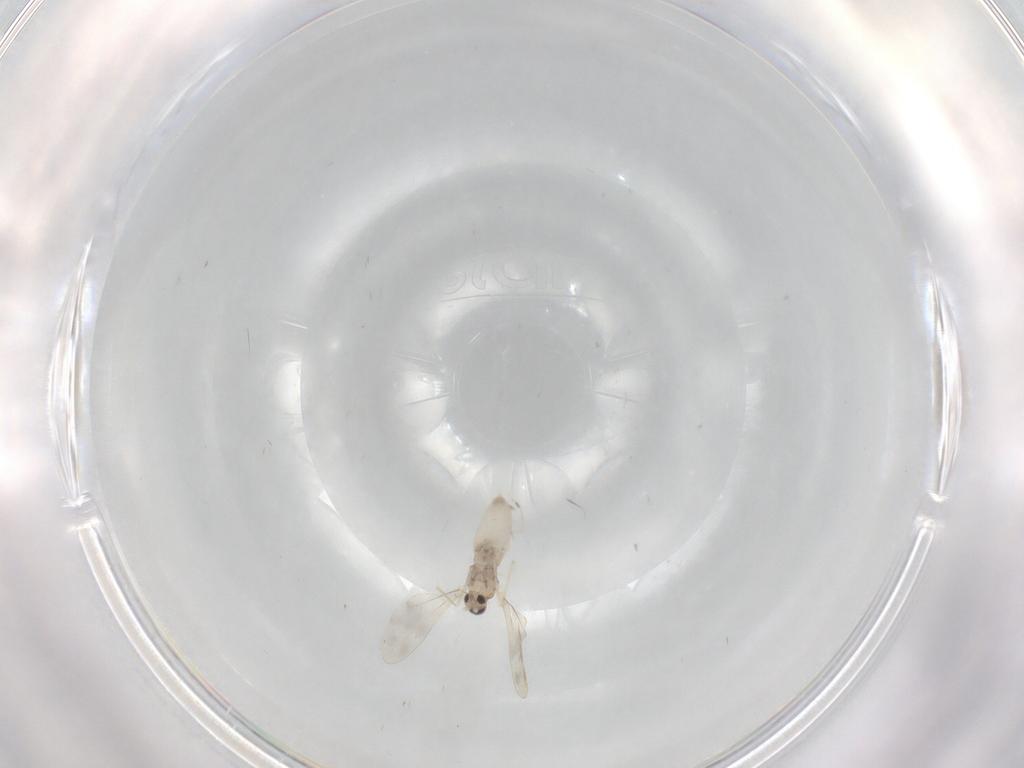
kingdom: Animalia
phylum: Arthropoda
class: Insecta
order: Diptera
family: Cecidomyiidae
